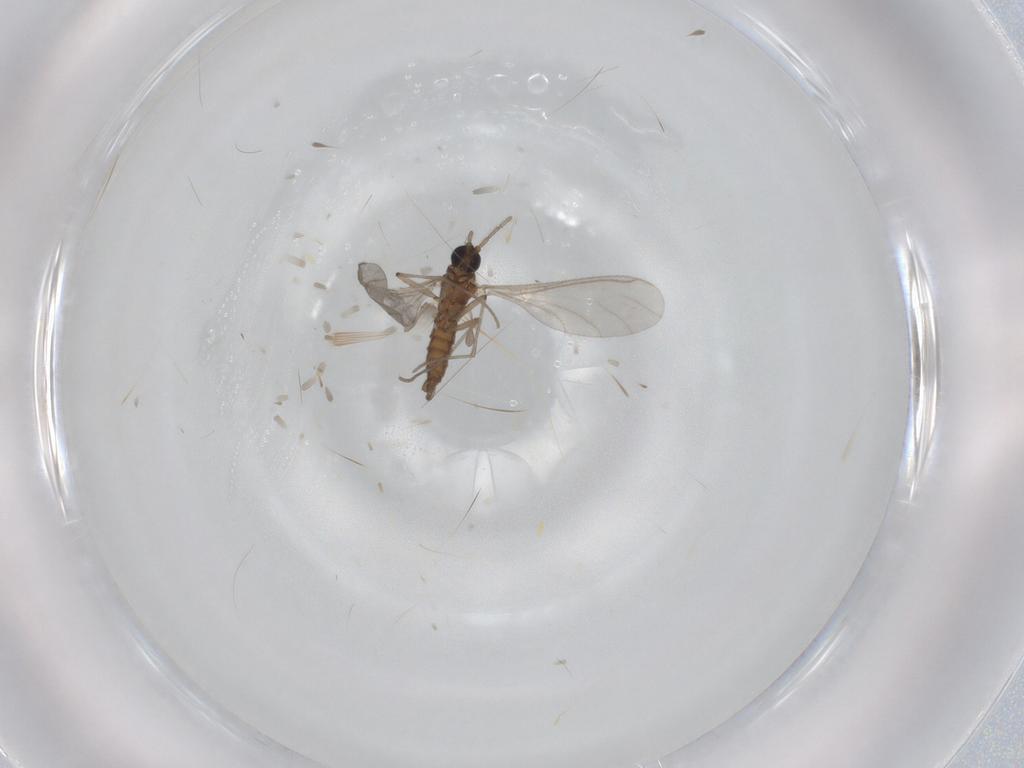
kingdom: Animalia
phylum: Arthropoda
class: Insecta
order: Diptera
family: Sciaridae
